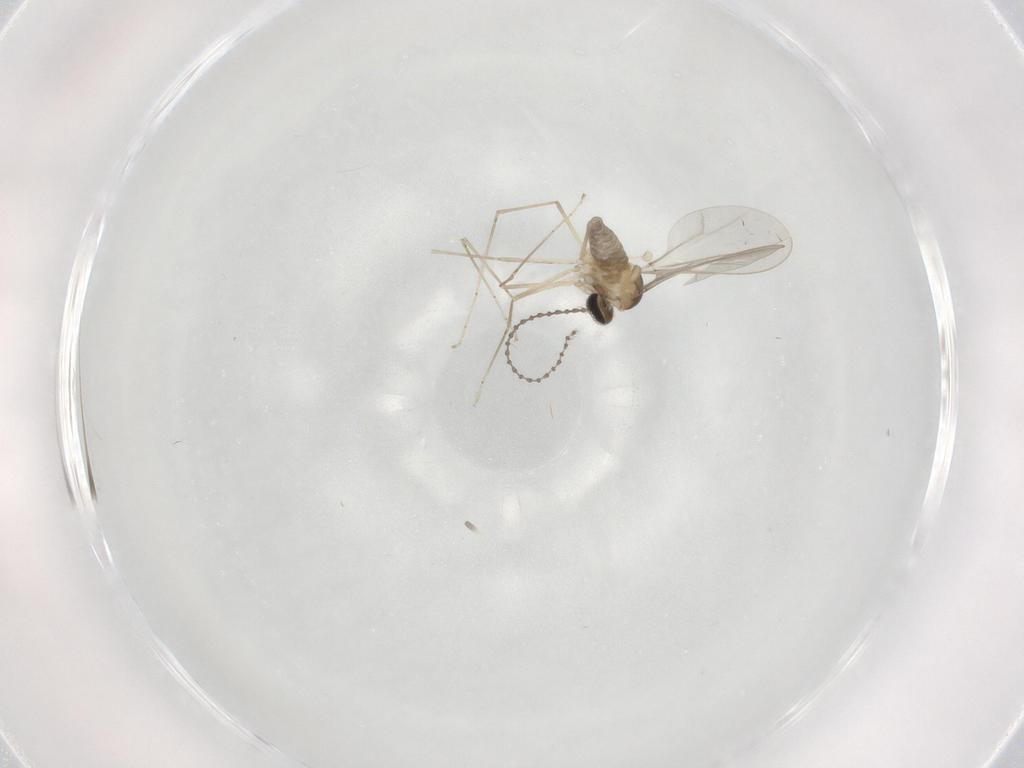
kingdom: Animalia
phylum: Arthropoda
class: Insecta
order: Diptera
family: Cecidomyiidae
